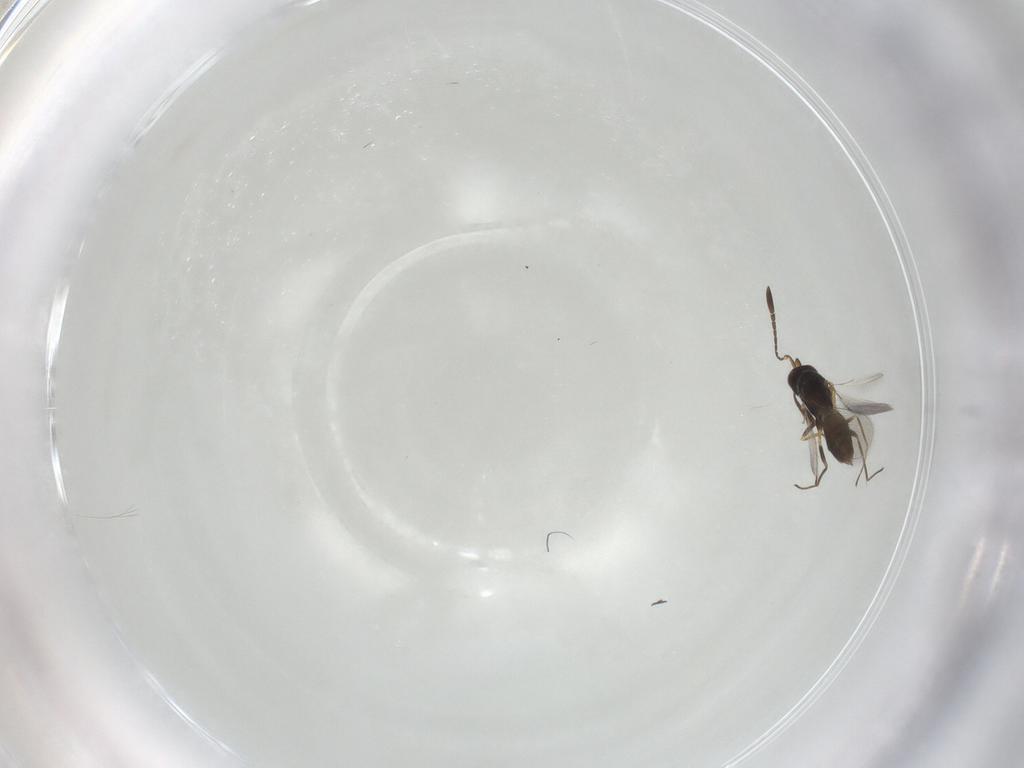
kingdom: Animalia
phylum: Arthropoda
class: Insecta
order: Hymenoptera
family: Mymaridae
